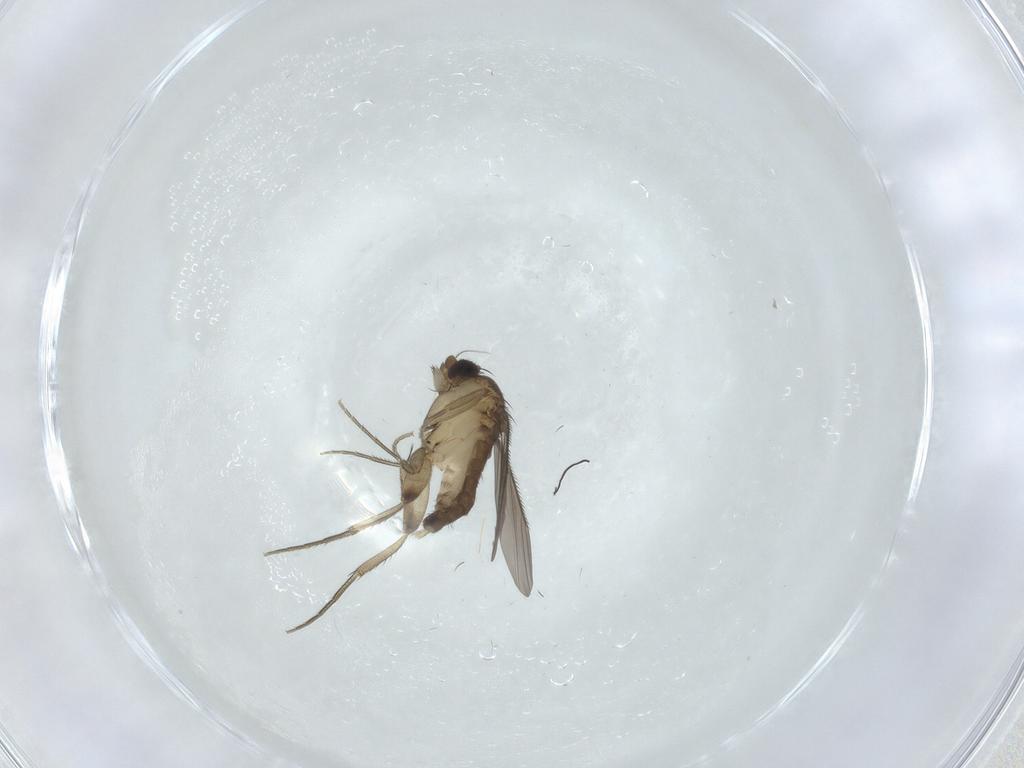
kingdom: Animalia
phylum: Arthropoda
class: Insecta
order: Diptera
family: Phoridae
